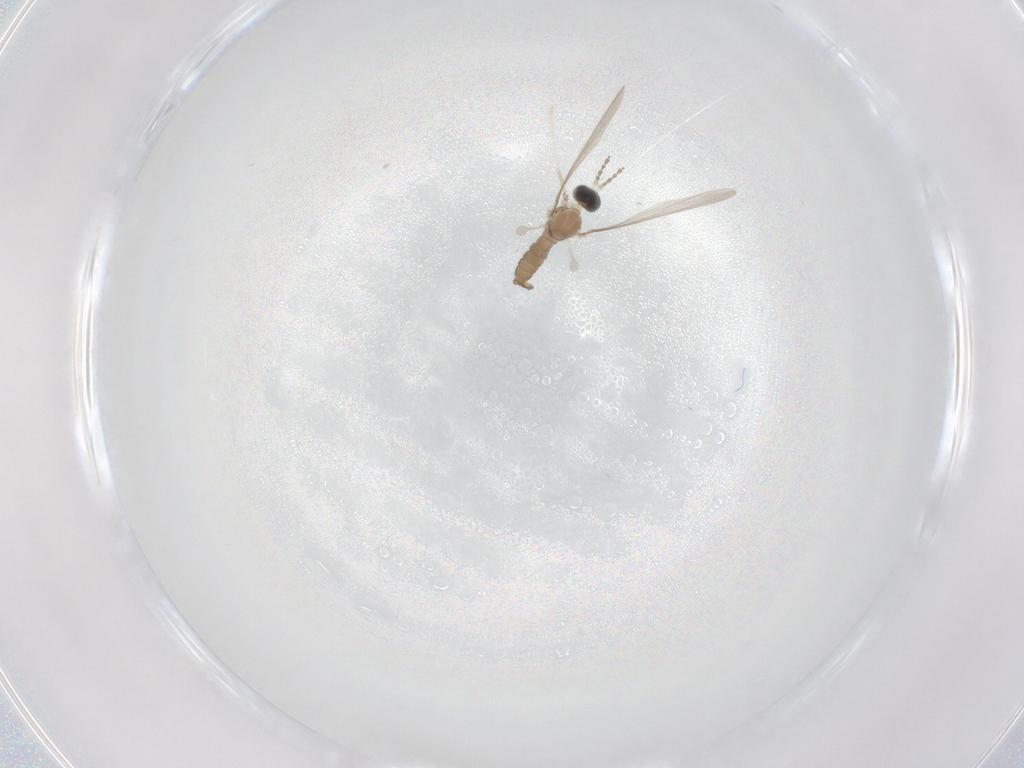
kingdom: Animalia
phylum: Arthropoda
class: Insecta
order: Diptera
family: Cecidomyiidae
